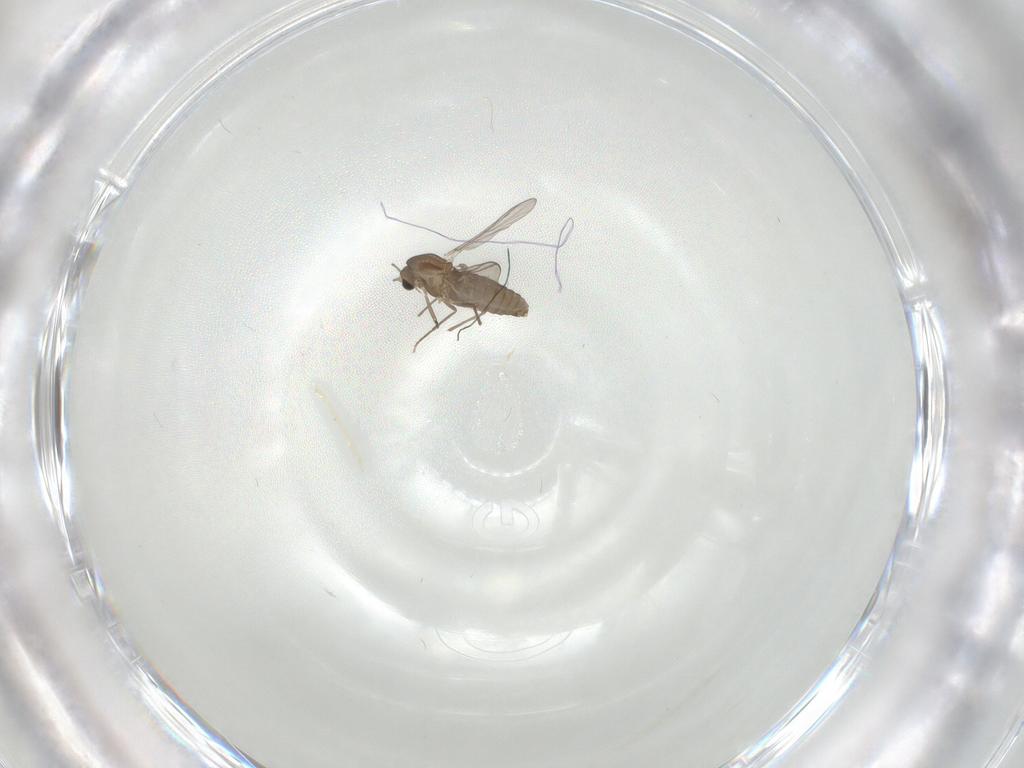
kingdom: Animalia
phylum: Arthropoda
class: Insecta
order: Diptera
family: Chironomidae
